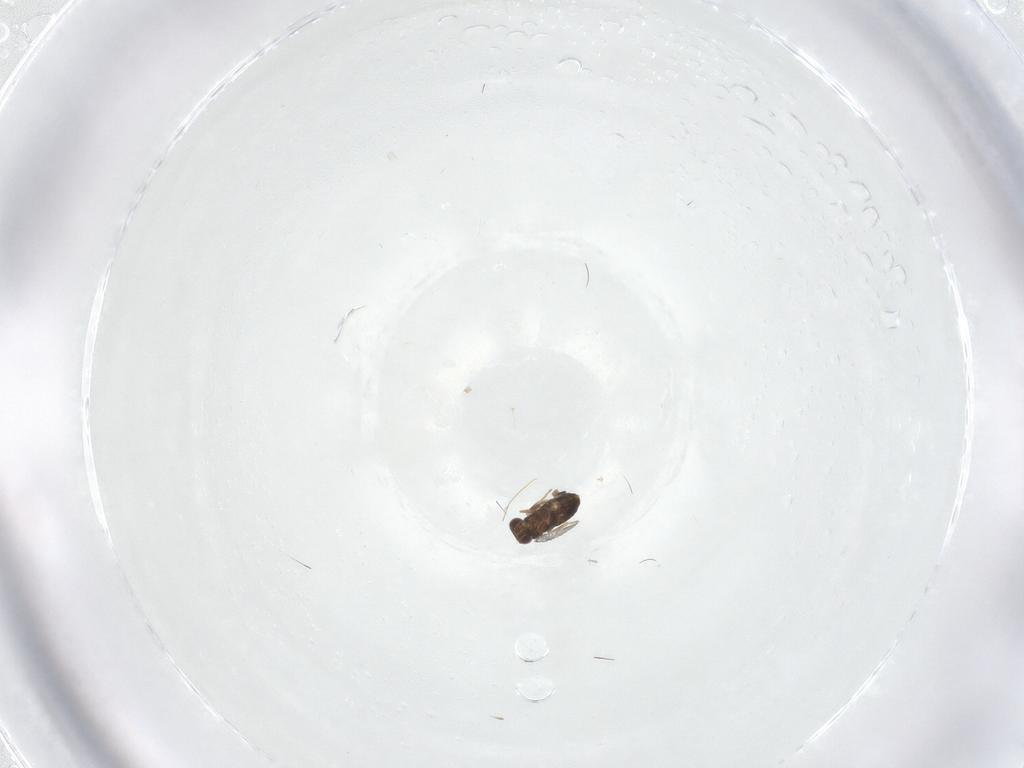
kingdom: Animalia
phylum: Arthropoda
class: Insecta
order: Hymenoptera
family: Trichogrammatidae
